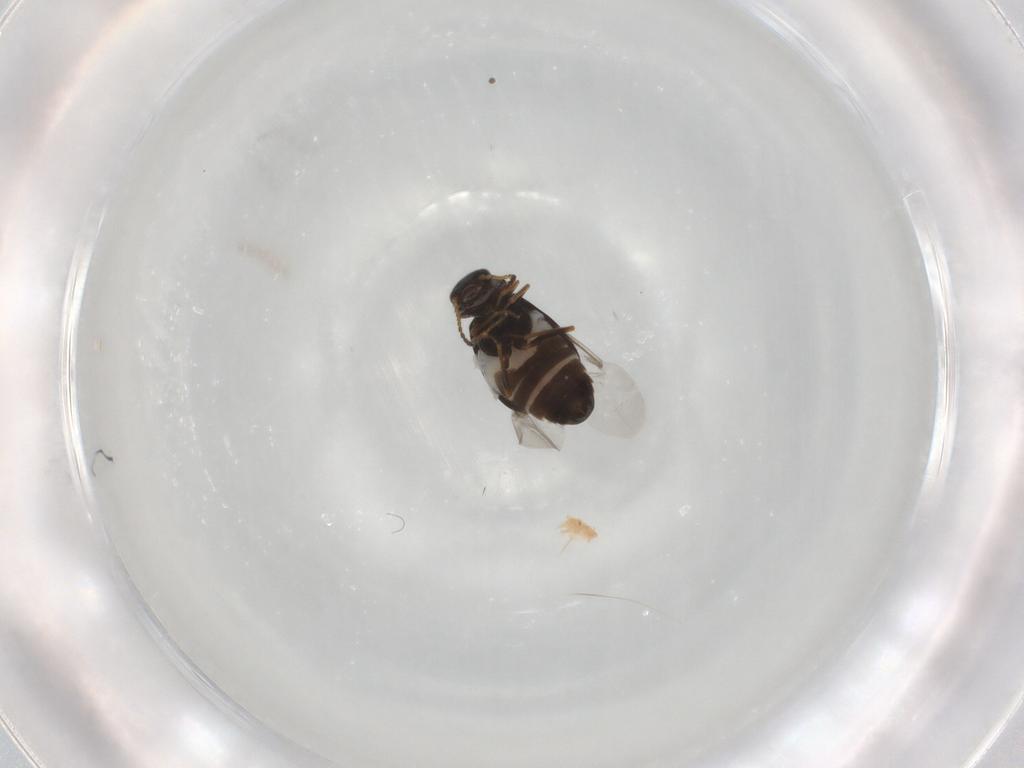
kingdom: Animalia
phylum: Arthropoda
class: Insecta
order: Coleoptera
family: Melyridae
